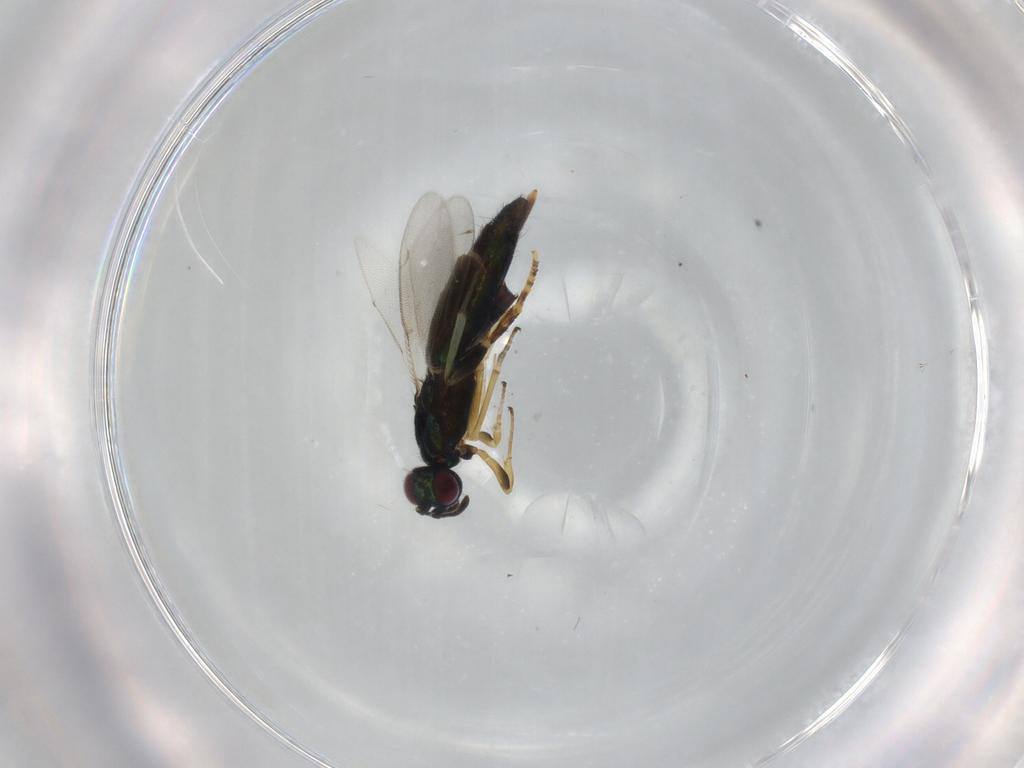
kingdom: Animalia
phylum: Arthropoda
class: Insecta
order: Hymenoptera
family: Eupelmidae
